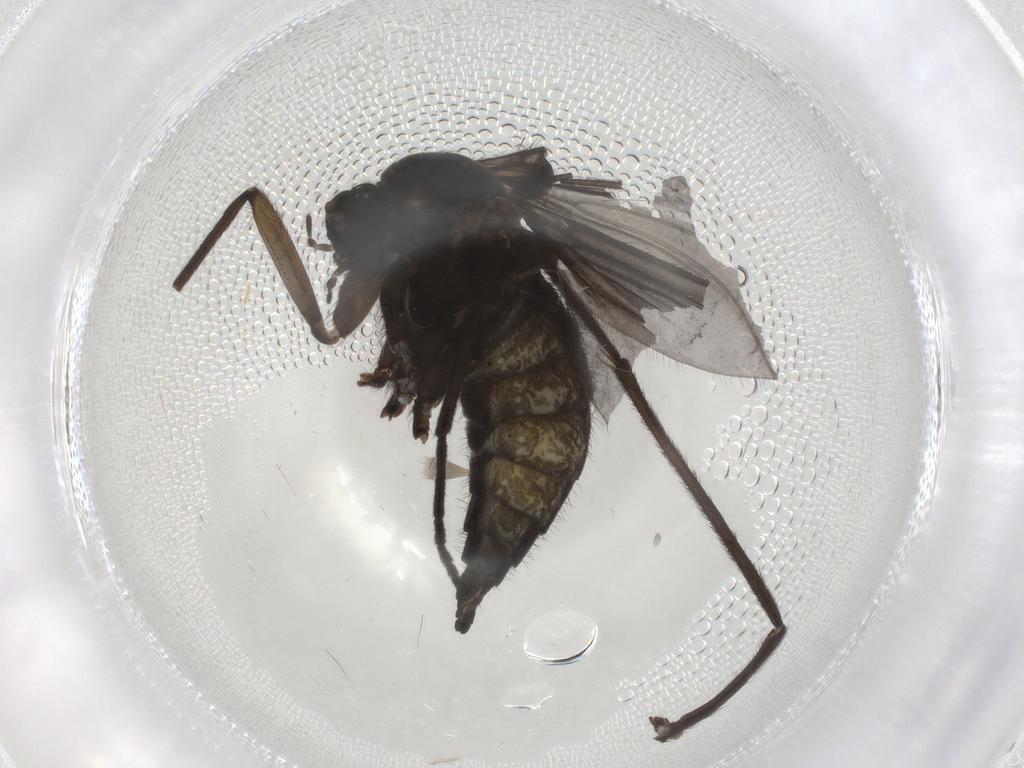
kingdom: Animalia
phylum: Arthropoda
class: Insecta
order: Diptera
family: Sciaridae
